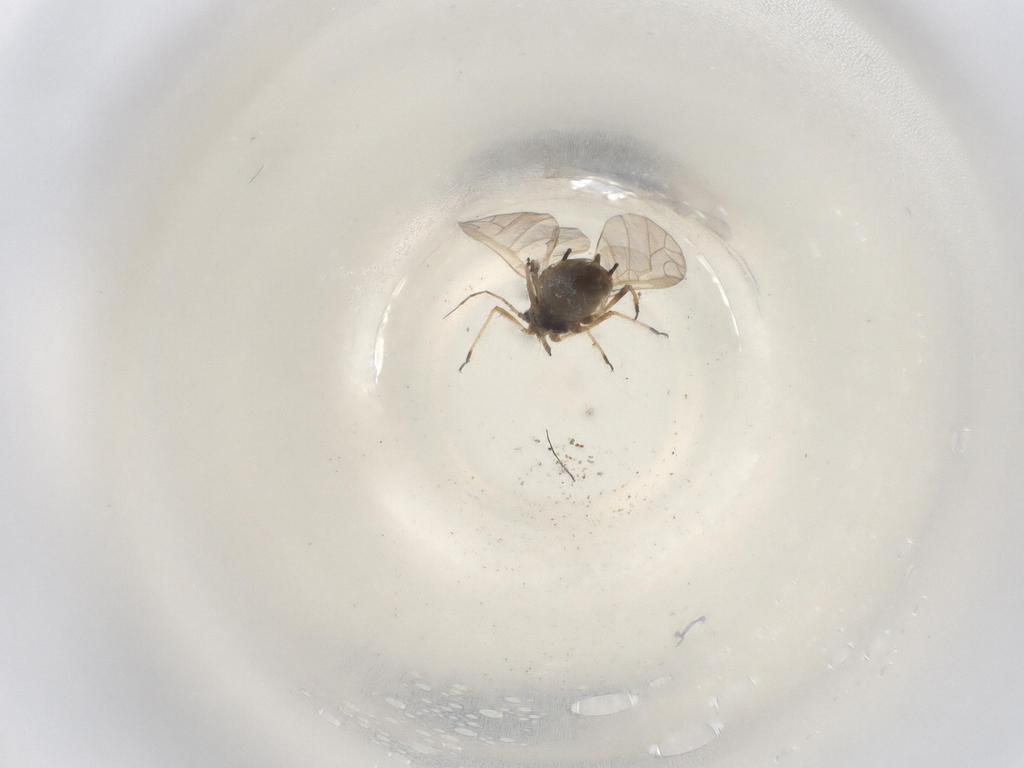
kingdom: Animalia
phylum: Arthropoda
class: Insecta
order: Hemiptera
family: Aphididae
